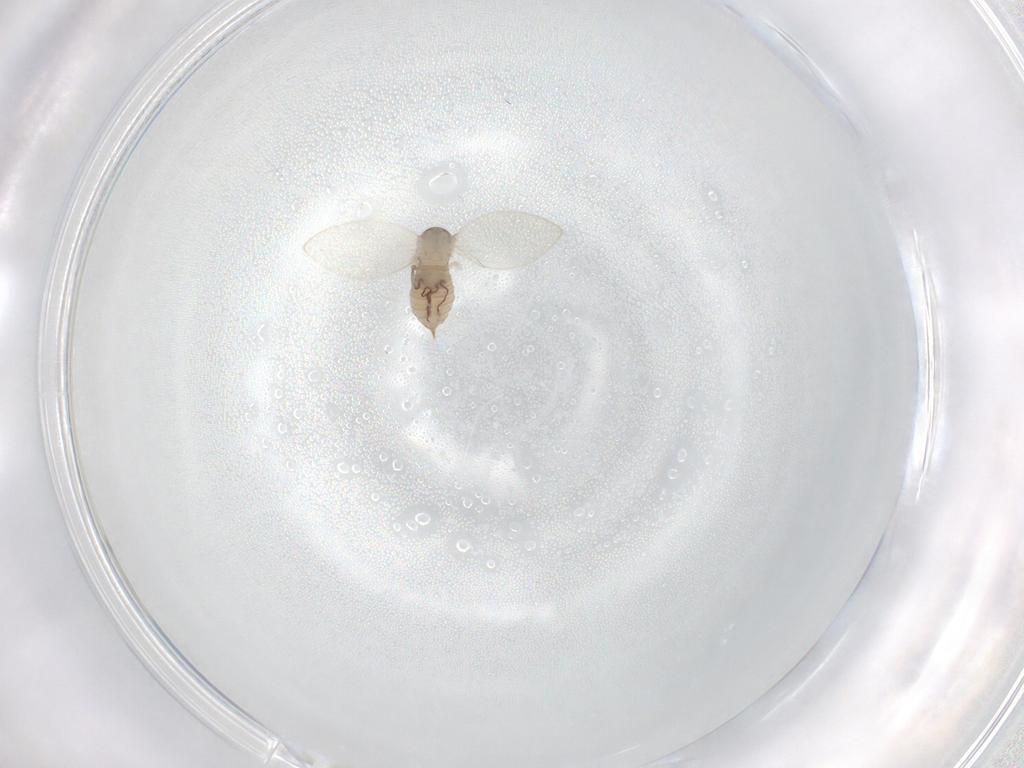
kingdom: Animalia
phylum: Arthropoda
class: Insecta
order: Diptera
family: Psychodidae
